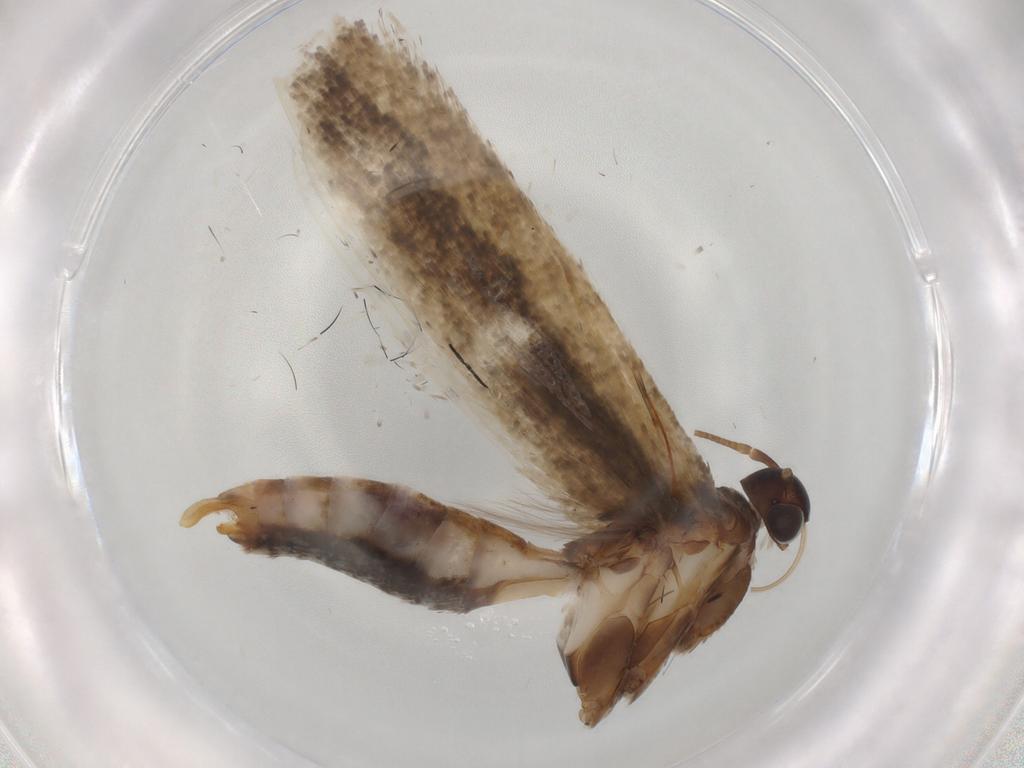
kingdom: Animalia
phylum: Arthropoda
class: Insecta
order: Lepidoptera
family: Gelechiidae
